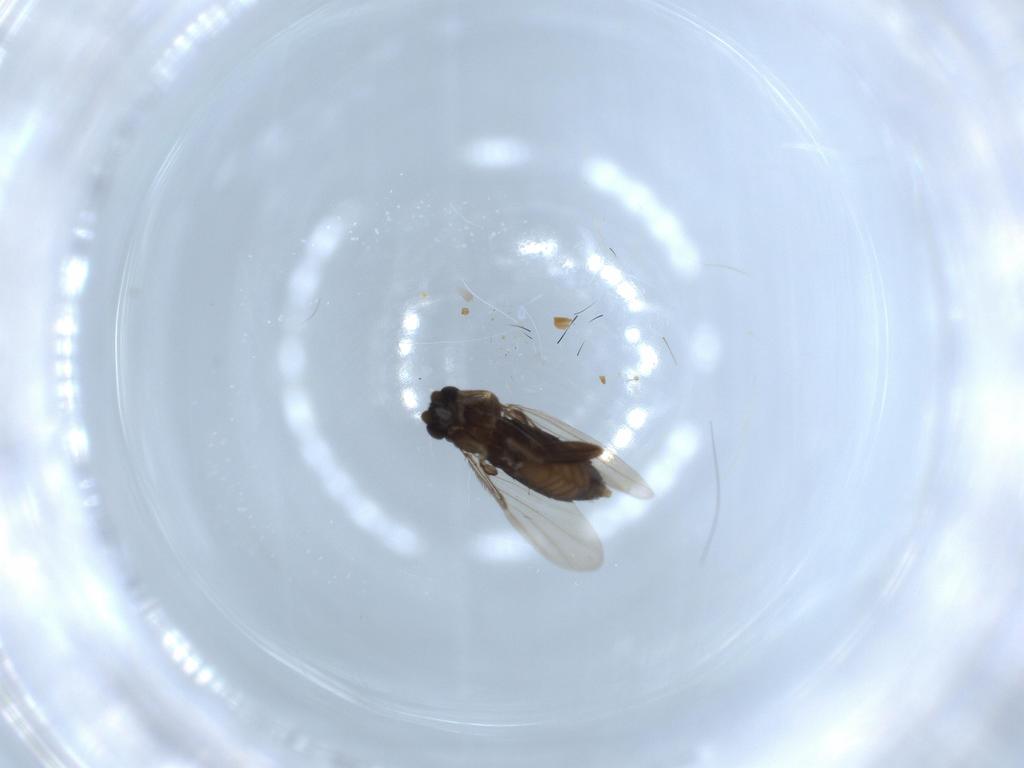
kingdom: Animalia
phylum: Arthropoda
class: Insecta
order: Diptera
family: Phoridae
